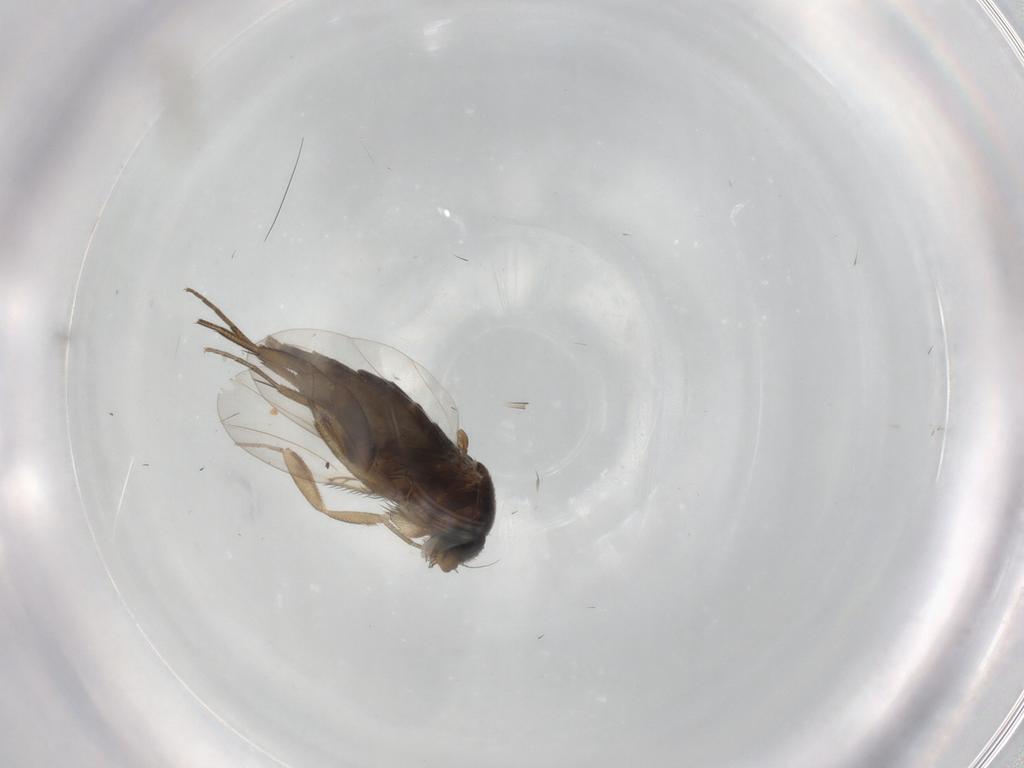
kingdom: Animalia
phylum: Arthropoda
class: Insecta
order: Diptera
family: Phoridae
